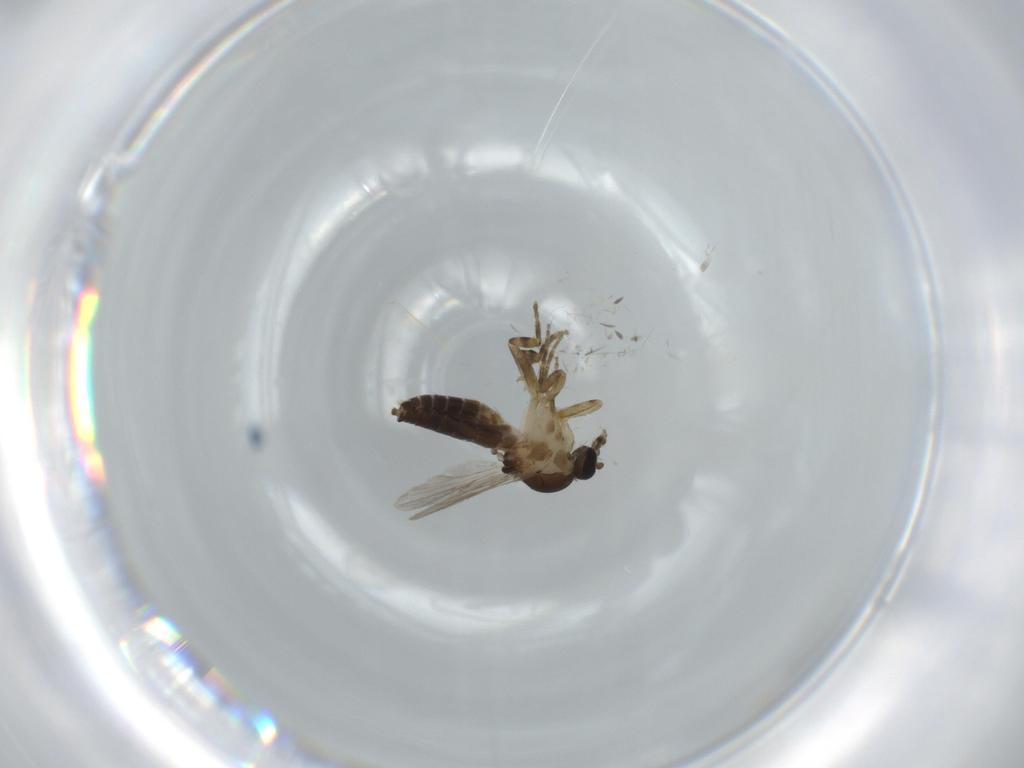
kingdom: Animalia
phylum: Arthropoda
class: Insecta
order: Diptera
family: Ceratopogonidae
